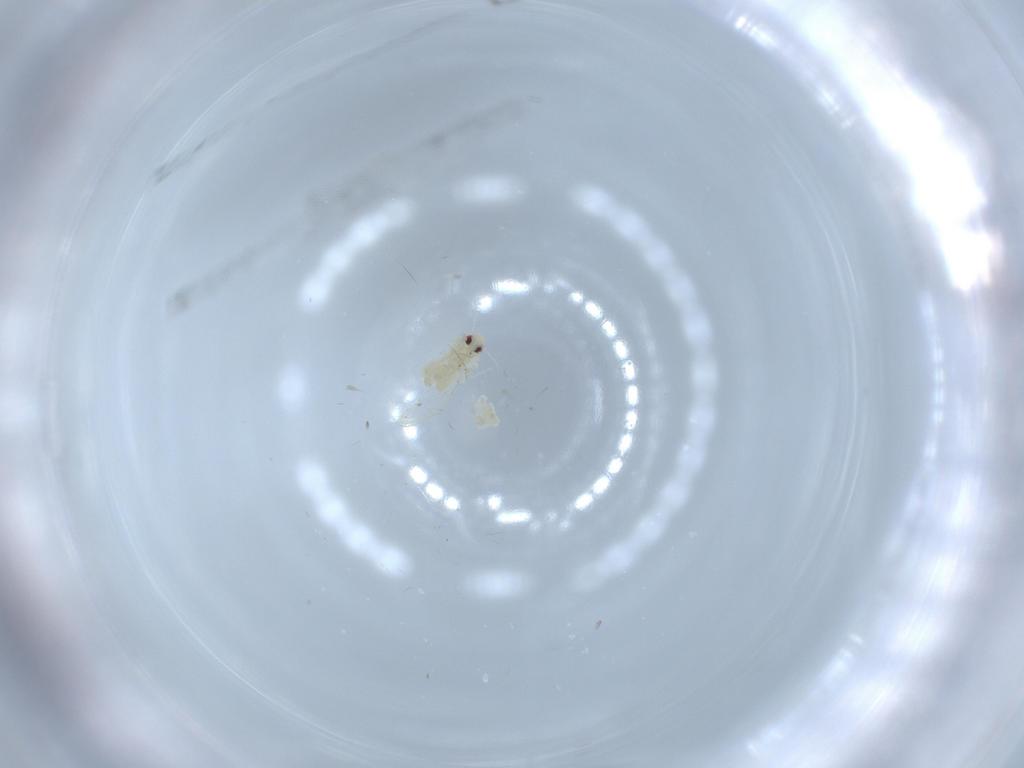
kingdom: Animalia
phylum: Arthropoda
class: Insecta
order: Hemiptera
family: Aleyrodidae
